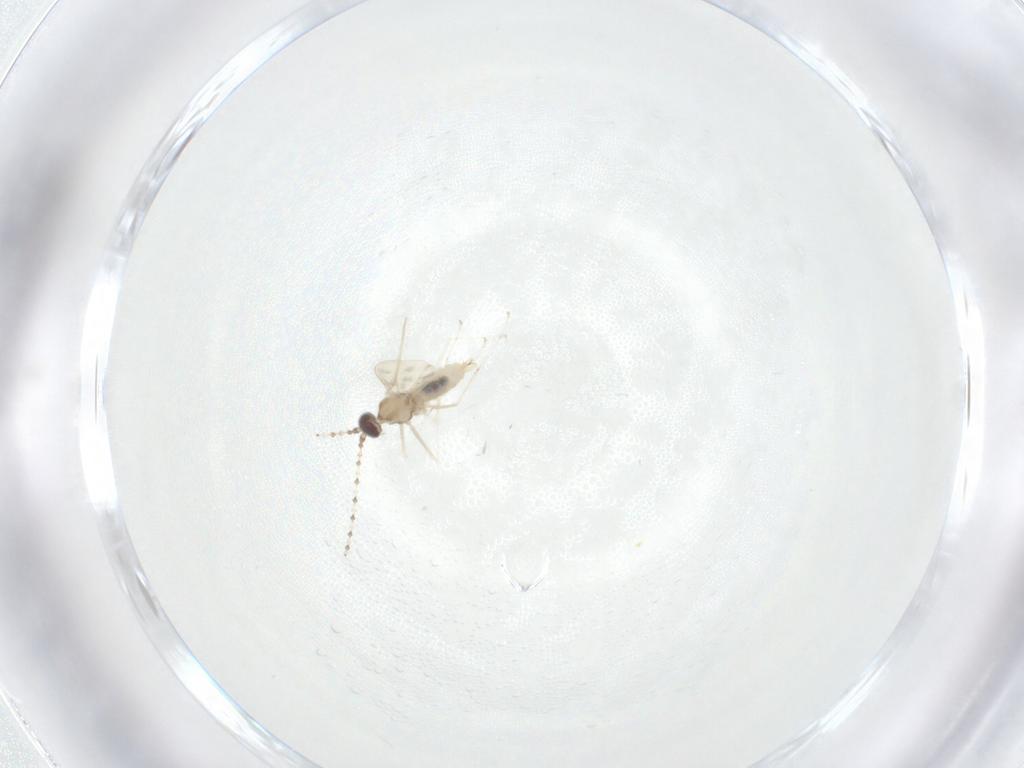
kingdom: Animalia
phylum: Arthropoda
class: Insecta
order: Diptera
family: Cecidomyiidae
